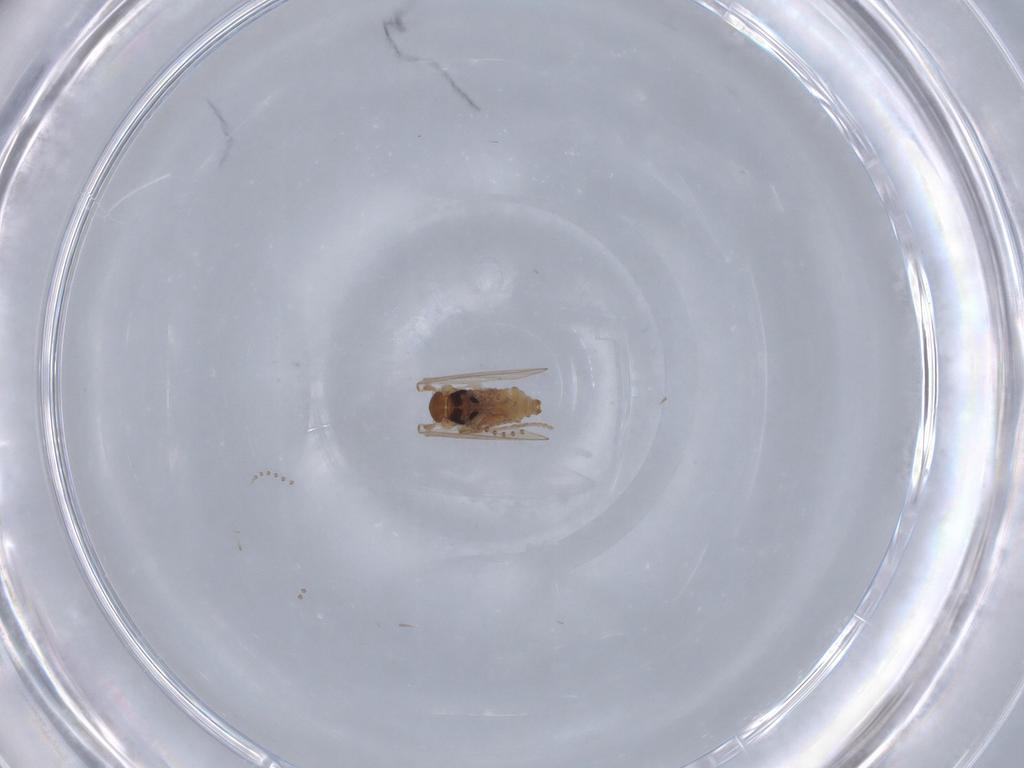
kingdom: Animalia
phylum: Arthropoda
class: Insecta
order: Diptera
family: Psychodidae
